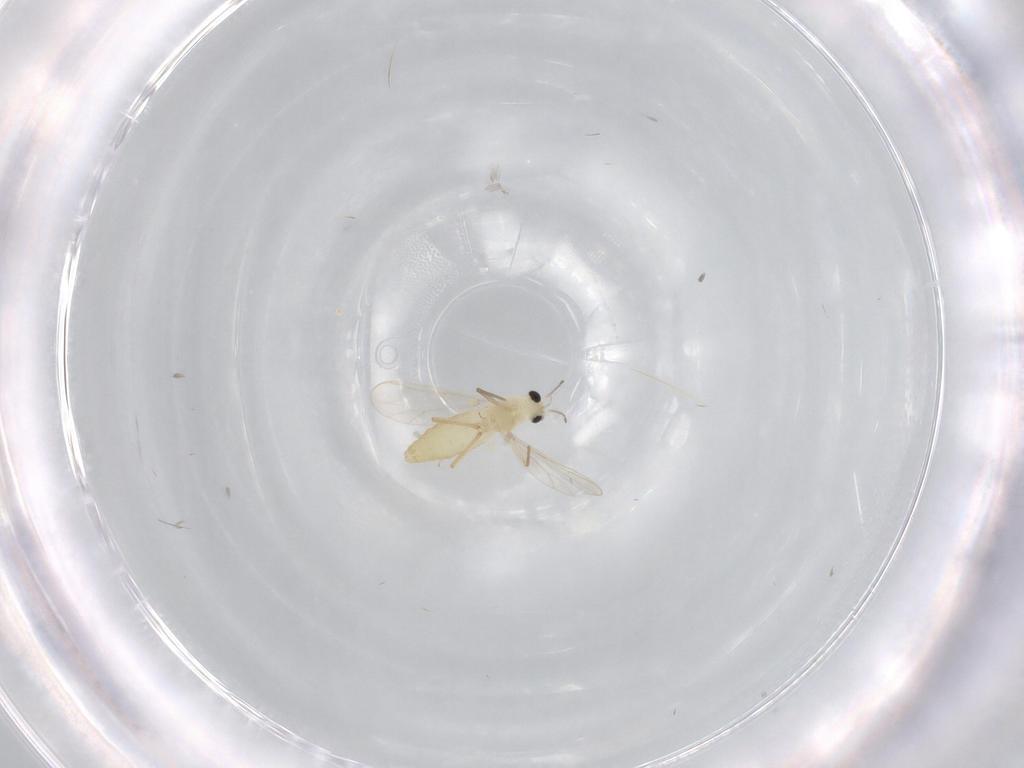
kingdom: Animalia
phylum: Arthropoda
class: Insecta
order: Diptera
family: Chironomidae
